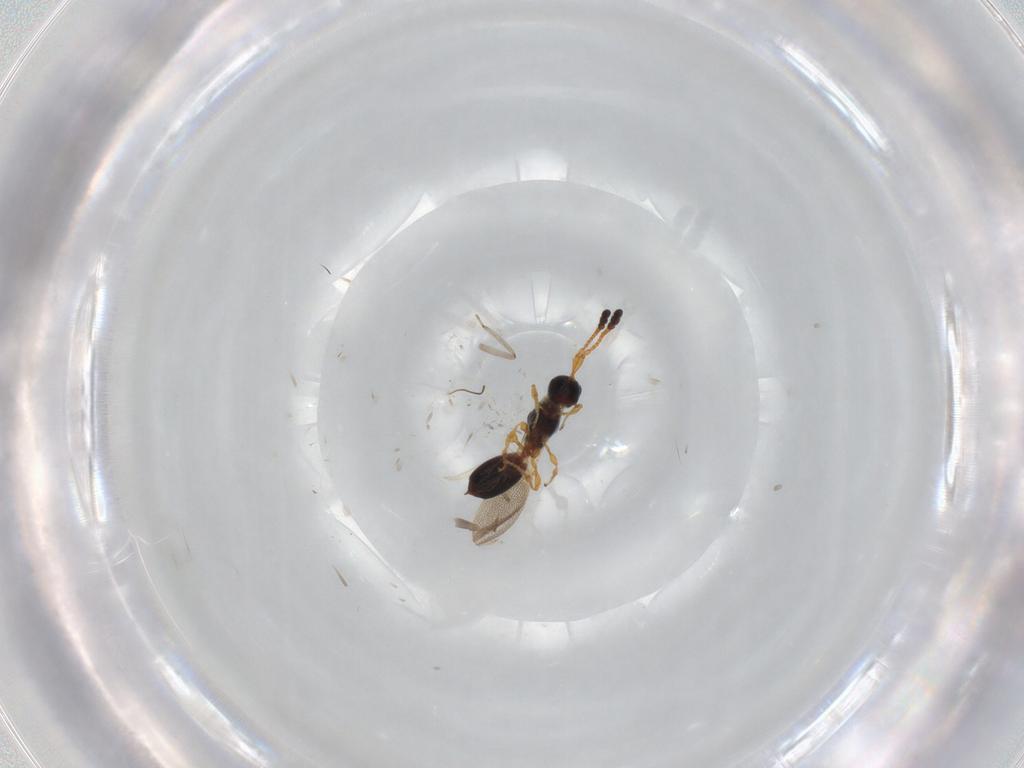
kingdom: Animalia
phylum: Arthropoda
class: Insecta
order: Hymenoptera
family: Diapriidae
